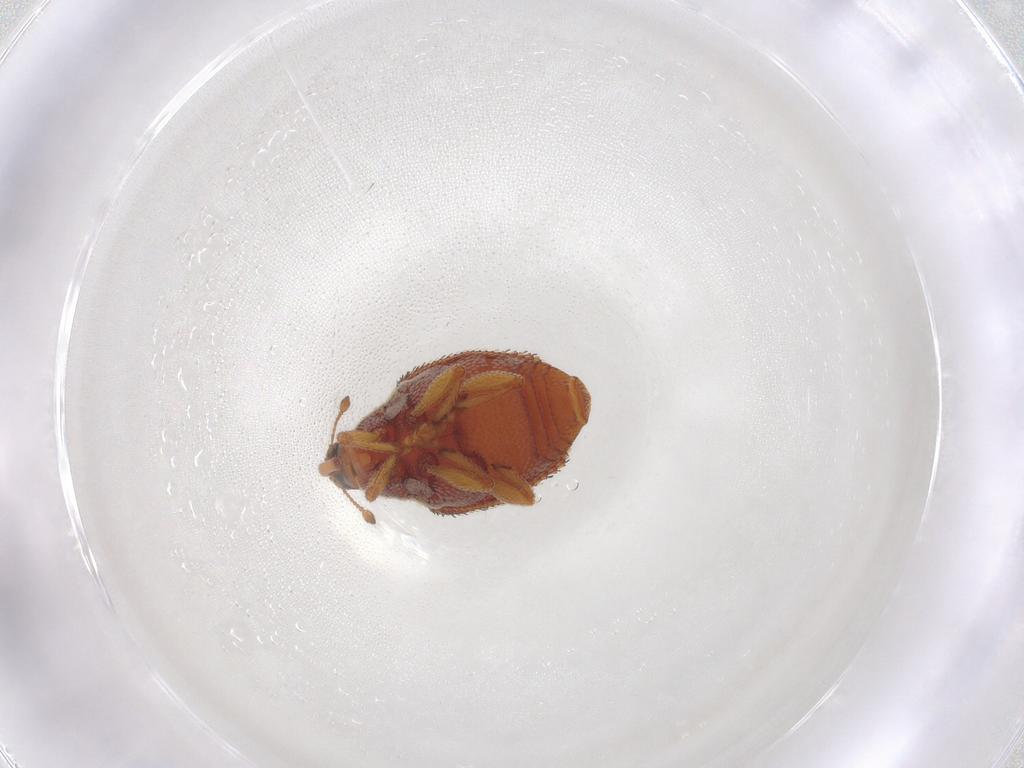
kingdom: Animalia
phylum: Arthropoda
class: Insecta
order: Coleoptera
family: Curculionidae
